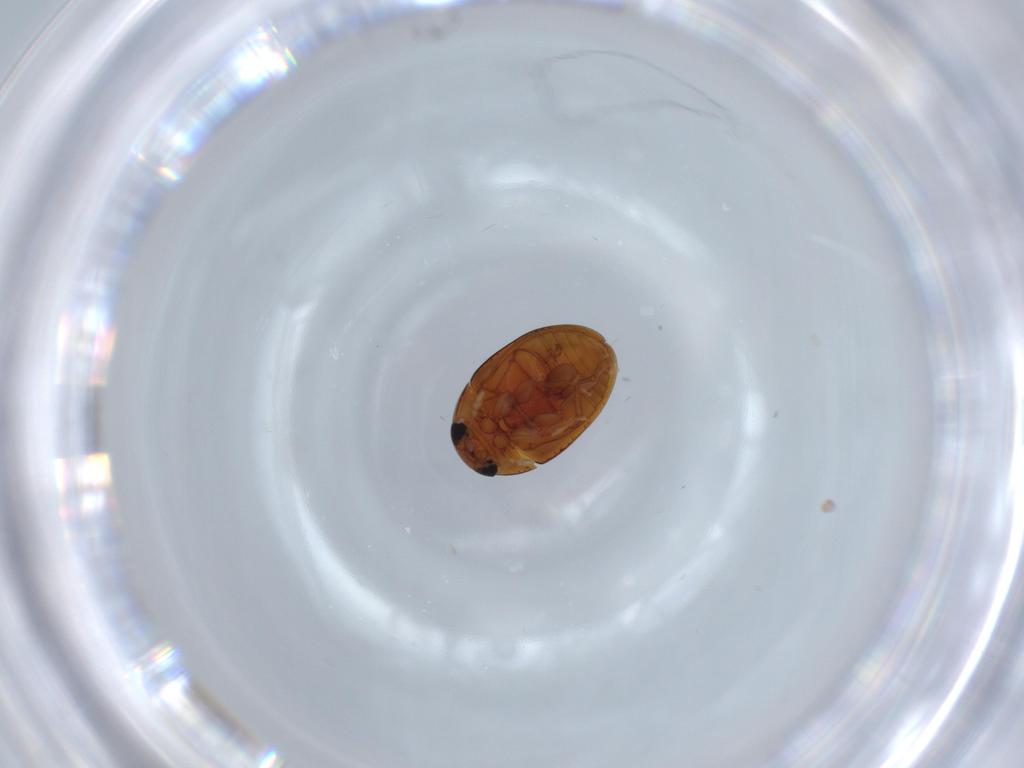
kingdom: Animalia
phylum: Arthropoda
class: Insecta
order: Coleoptera
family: Phalacridae
